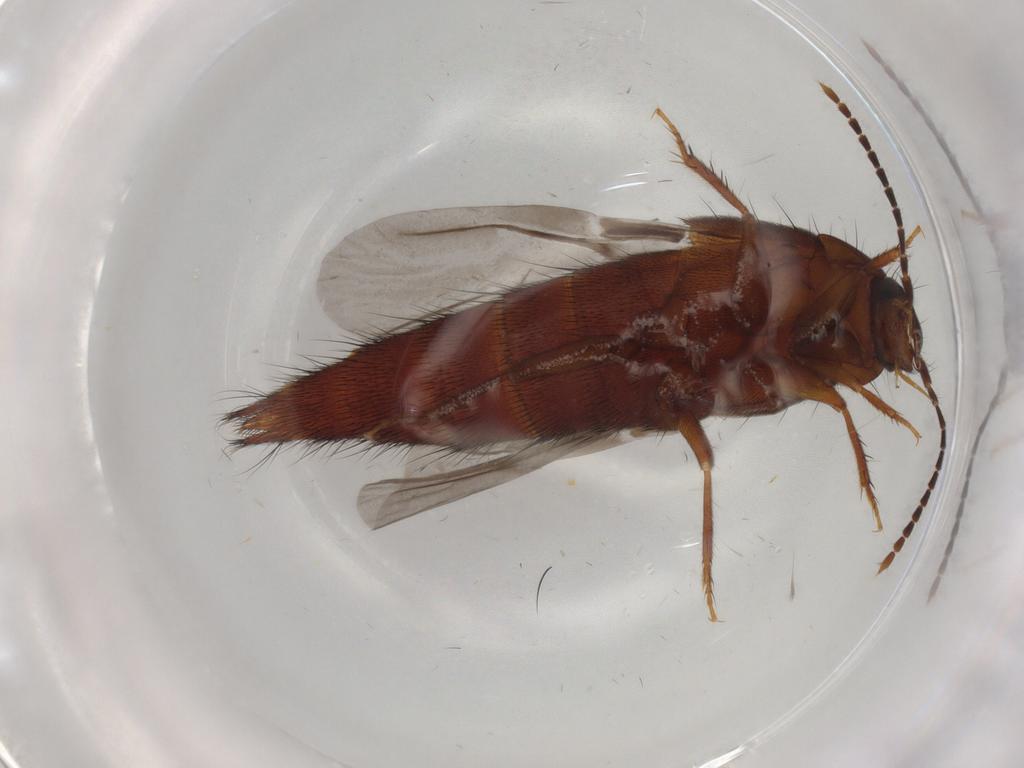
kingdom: Animalia
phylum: Arthropoda
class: Insecta
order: Coleoptera
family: Staphylinidae
